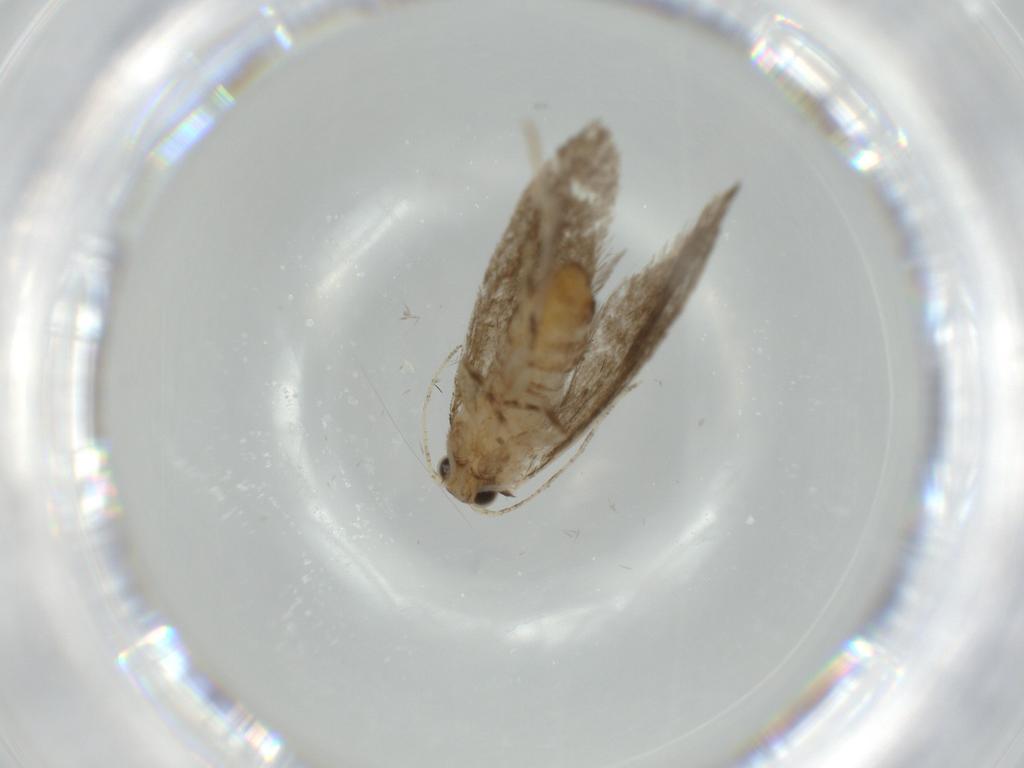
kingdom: Animalia
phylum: Arthropoda
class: Insecta
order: Lepidoptera
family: Tineidae
